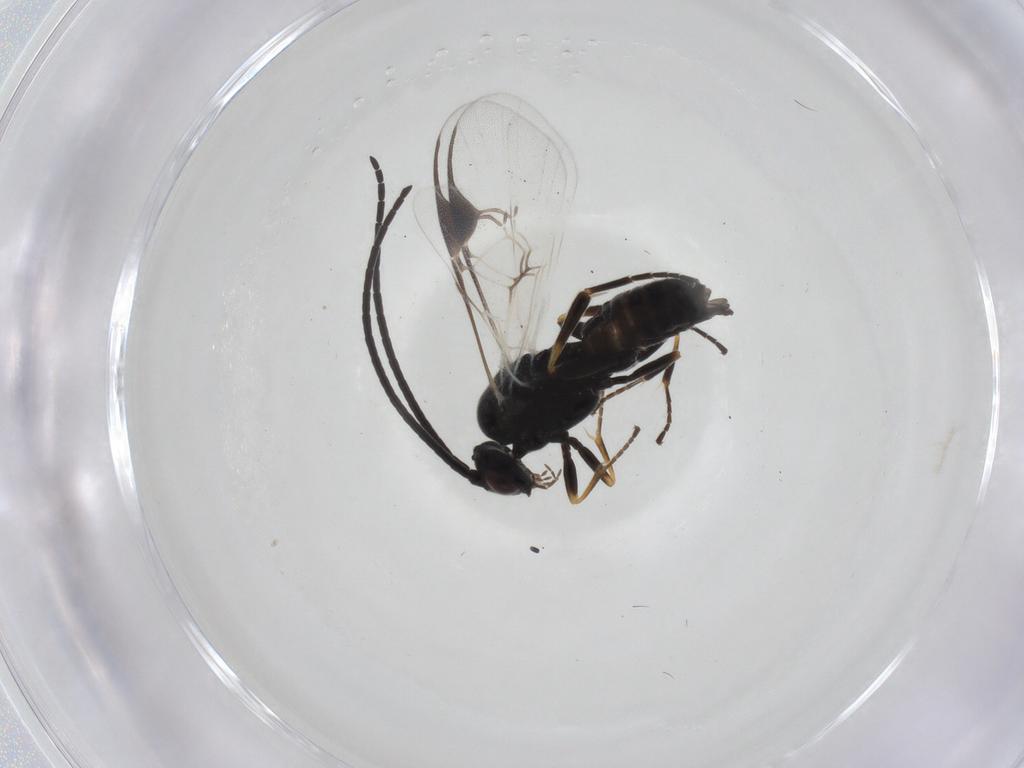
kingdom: Animalia
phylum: Arthropoda
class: Insecta
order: Hymenoptera
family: Braconidae
